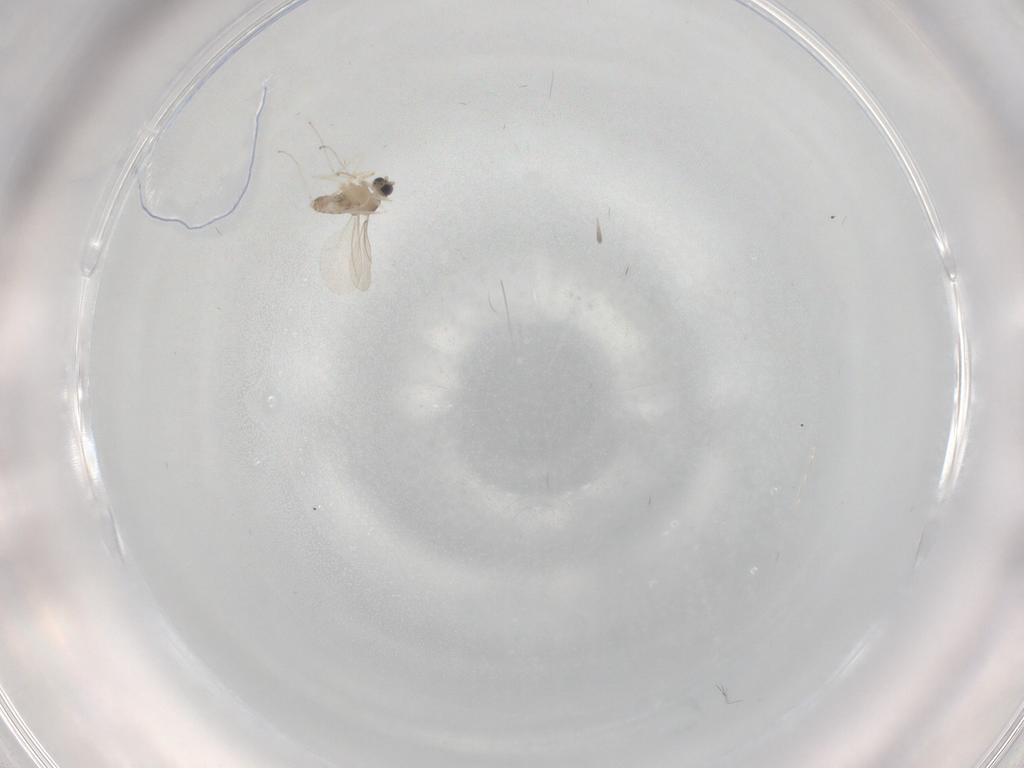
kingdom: Animalia
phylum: Arthropoda
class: Insecta
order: Diptera
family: Cecidomyiidae
